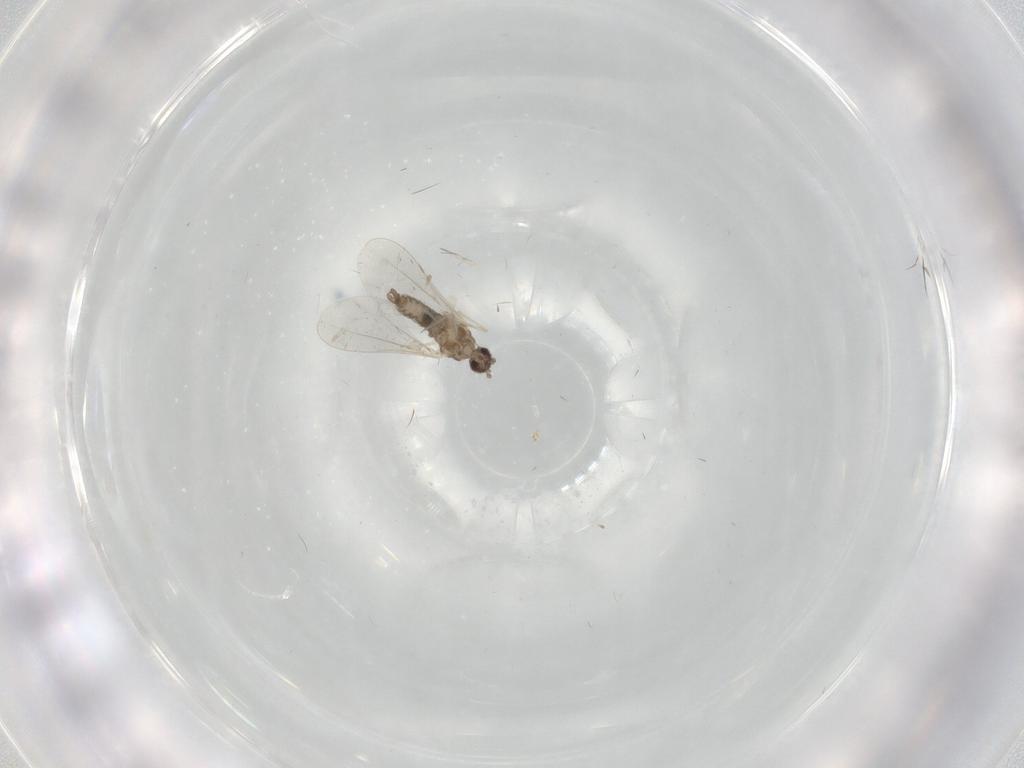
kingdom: Animalia
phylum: Arthropoda
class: Insecta
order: Diptera
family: Cecidomyiidae
